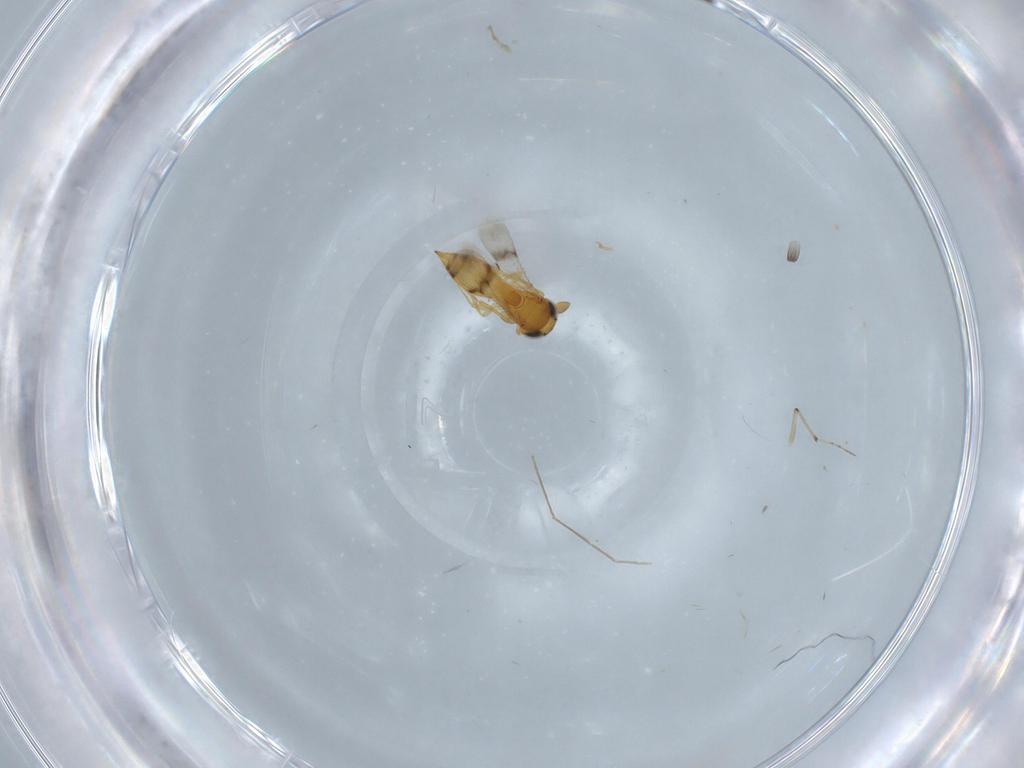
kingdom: Animalia
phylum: Arthropoda
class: Insecta
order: Hymenoptera
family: Scelionidae
